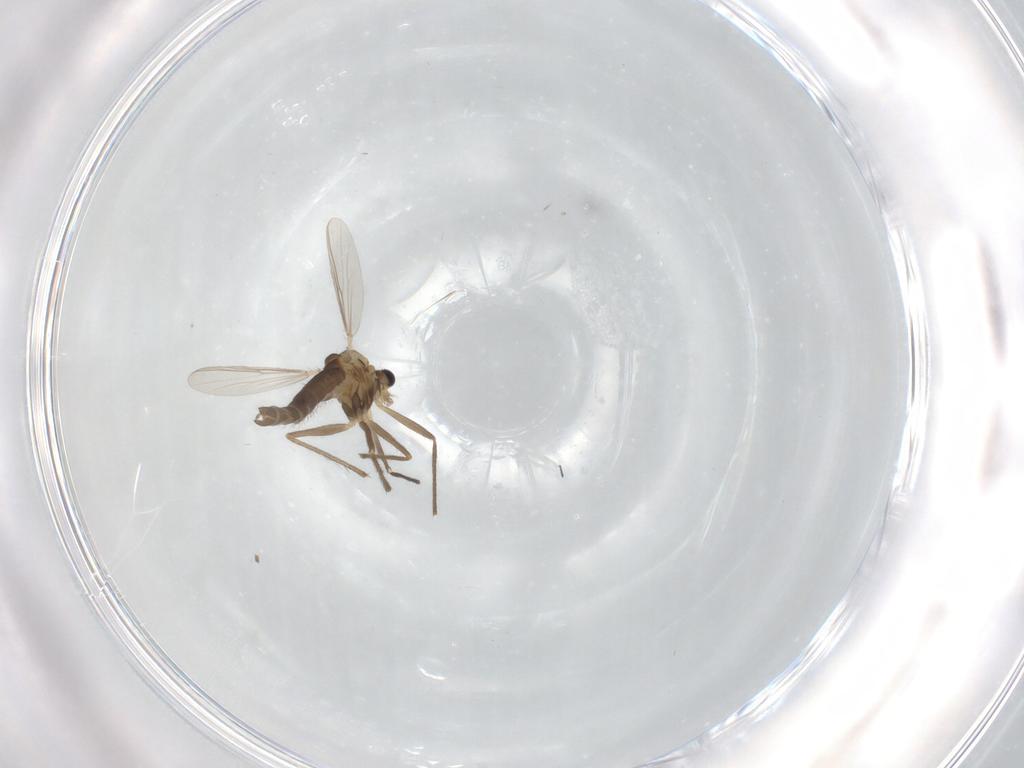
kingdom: Animalia
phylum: Arthropoda
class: Insecta
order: Diptera
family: Chironomidae
